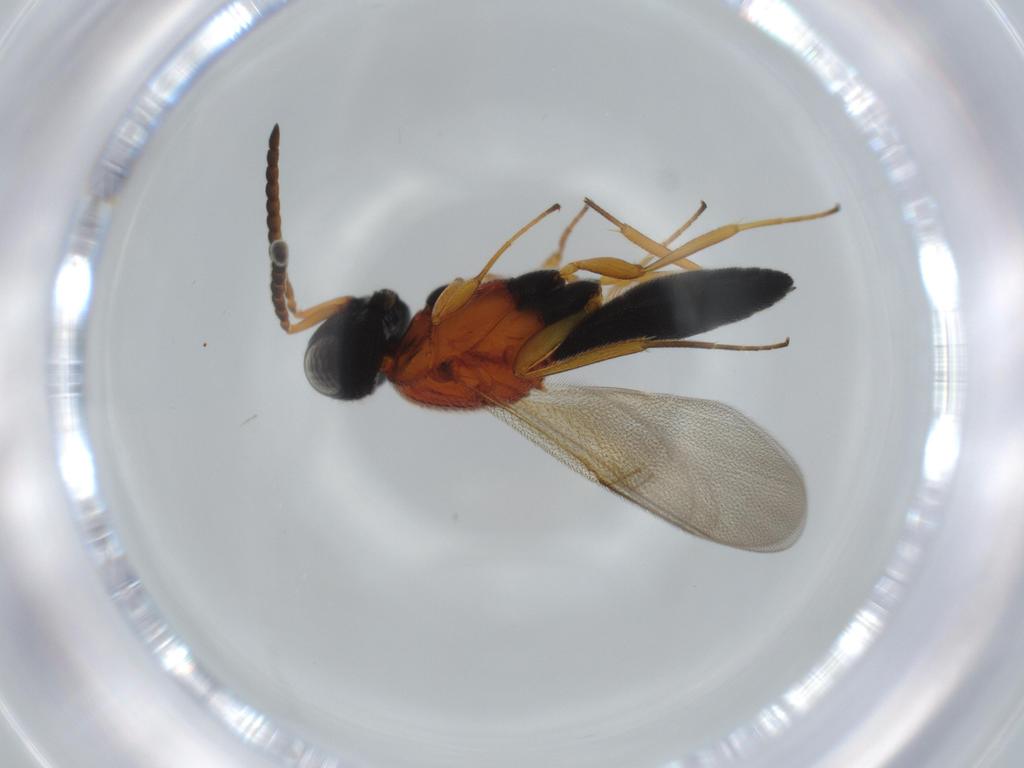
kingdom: Animalia
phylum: Arthropoda
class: Insecta
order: Hymenoptera
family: Scelionidae
